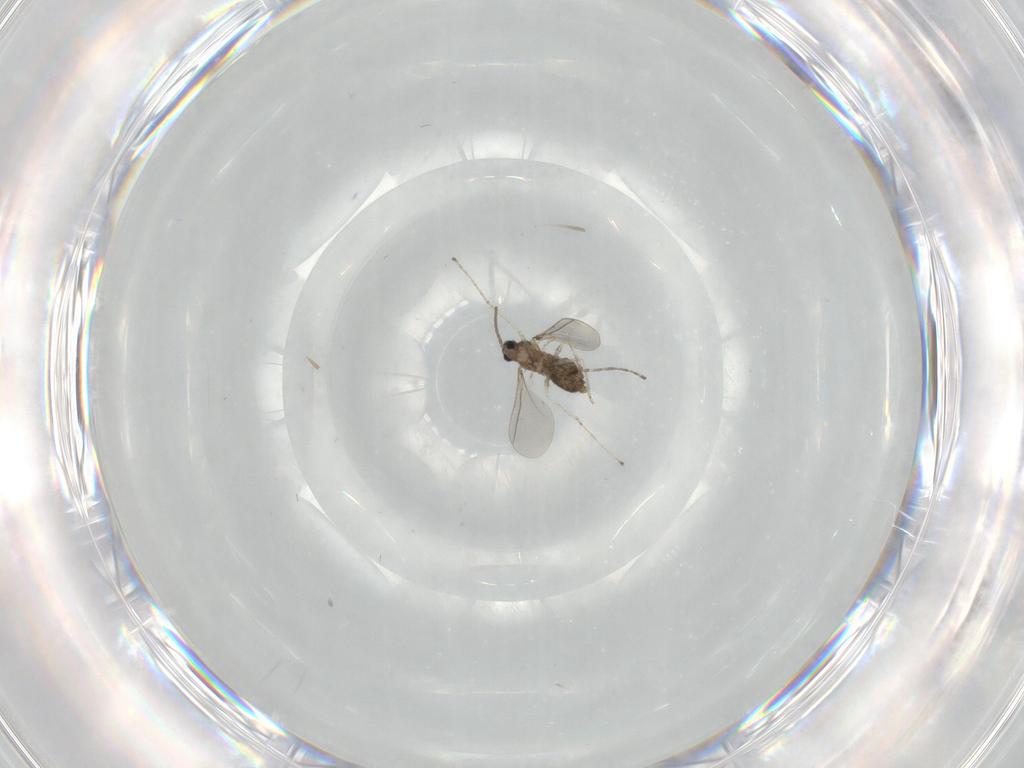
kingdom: Animalia
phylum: Arthropoda
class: Insecta
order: Diptera
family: Cecidomyiidae
